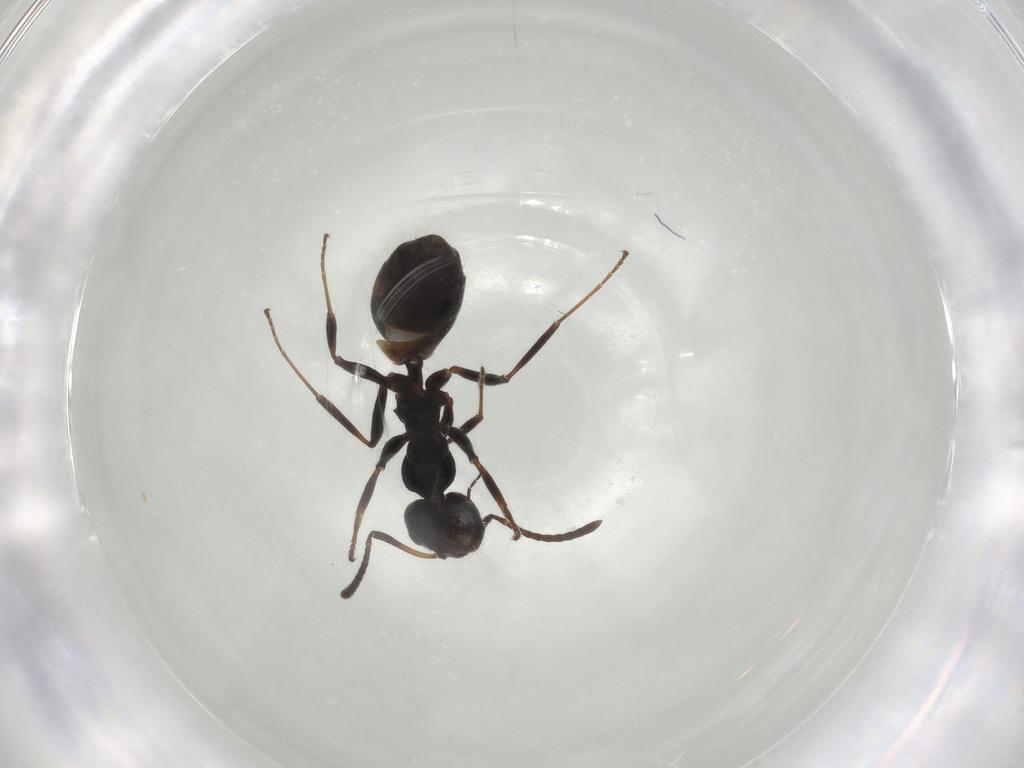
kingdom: Animalia
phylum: Arthropoda
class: Insecta
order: Hymenoptera
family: Formicidae
